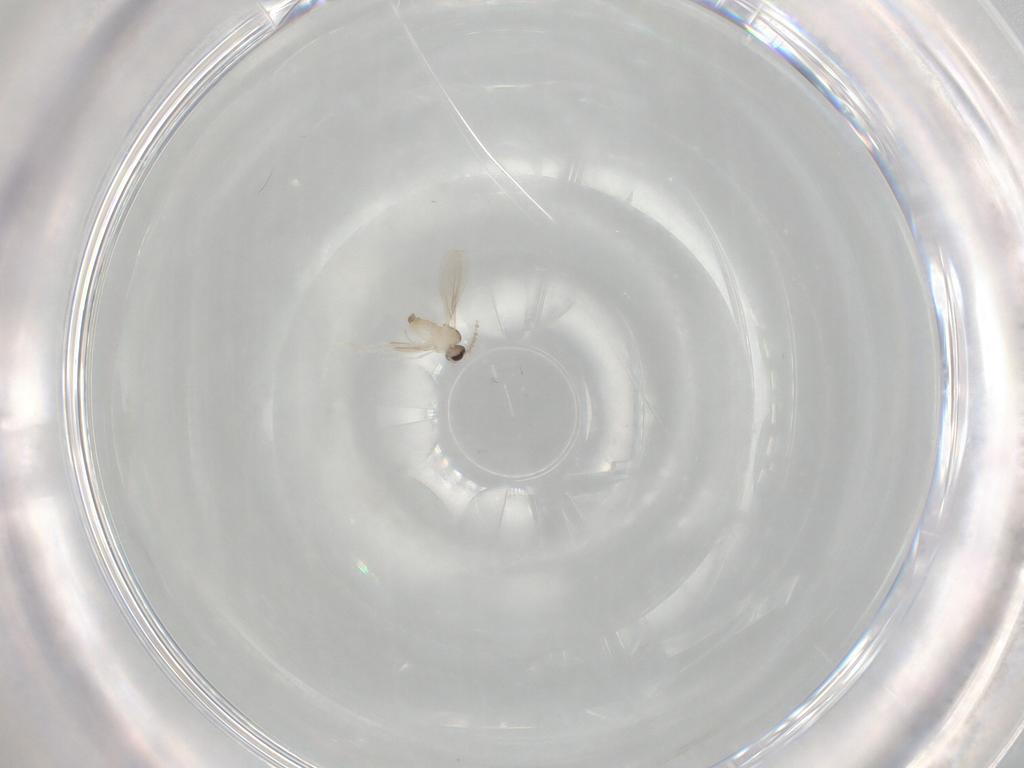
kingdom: Animalia
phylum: Arthropoda
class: Insecta
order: Diptera
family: Cecidomyiidae
